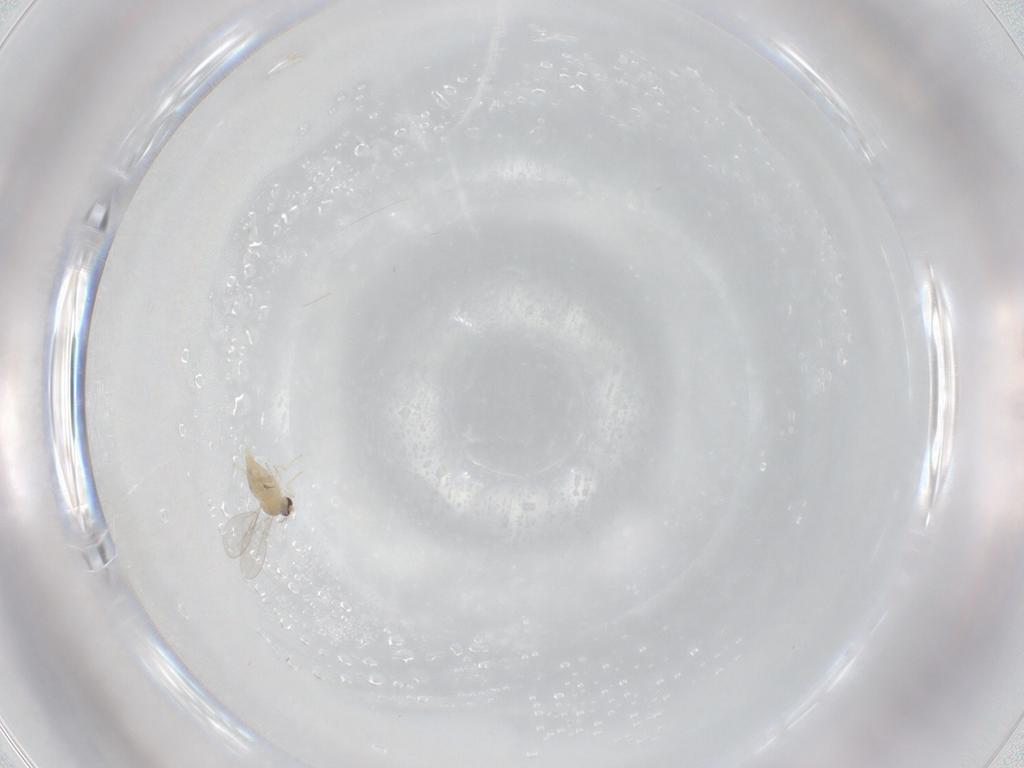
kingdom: Animalia
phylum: Arthropoda
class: Insecta
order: Diptera
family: Cecidomyiidae
